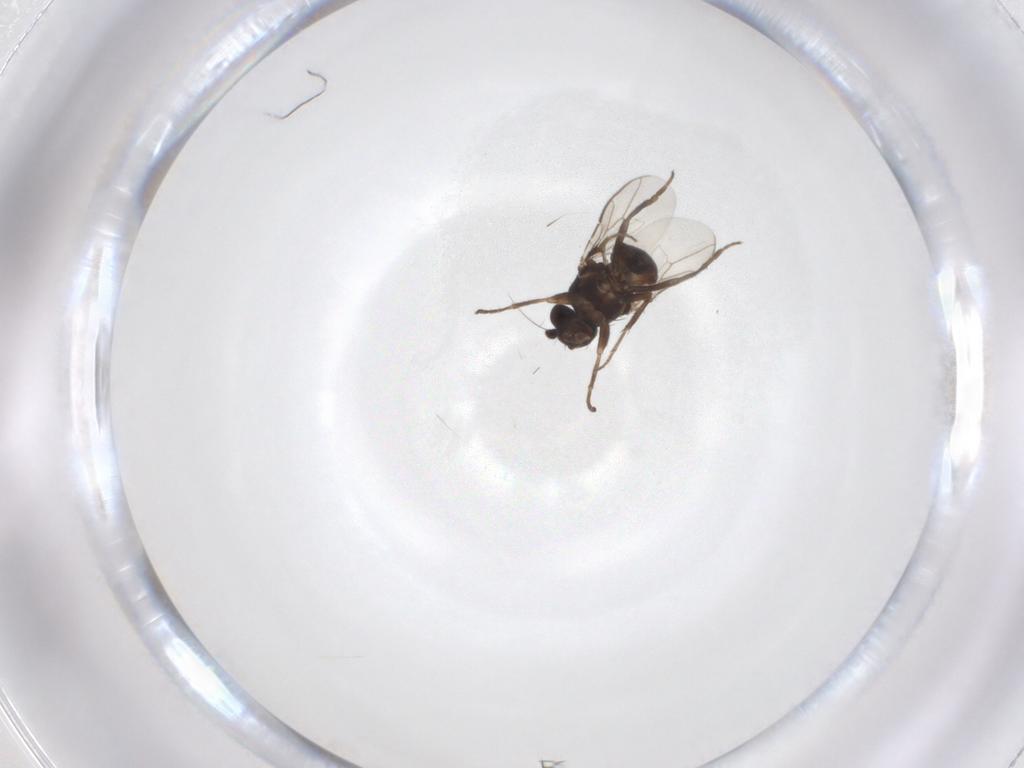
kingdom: Animalia
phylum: Arthropoda
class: Insecta
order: Diptera
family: Sphaeroceridae
